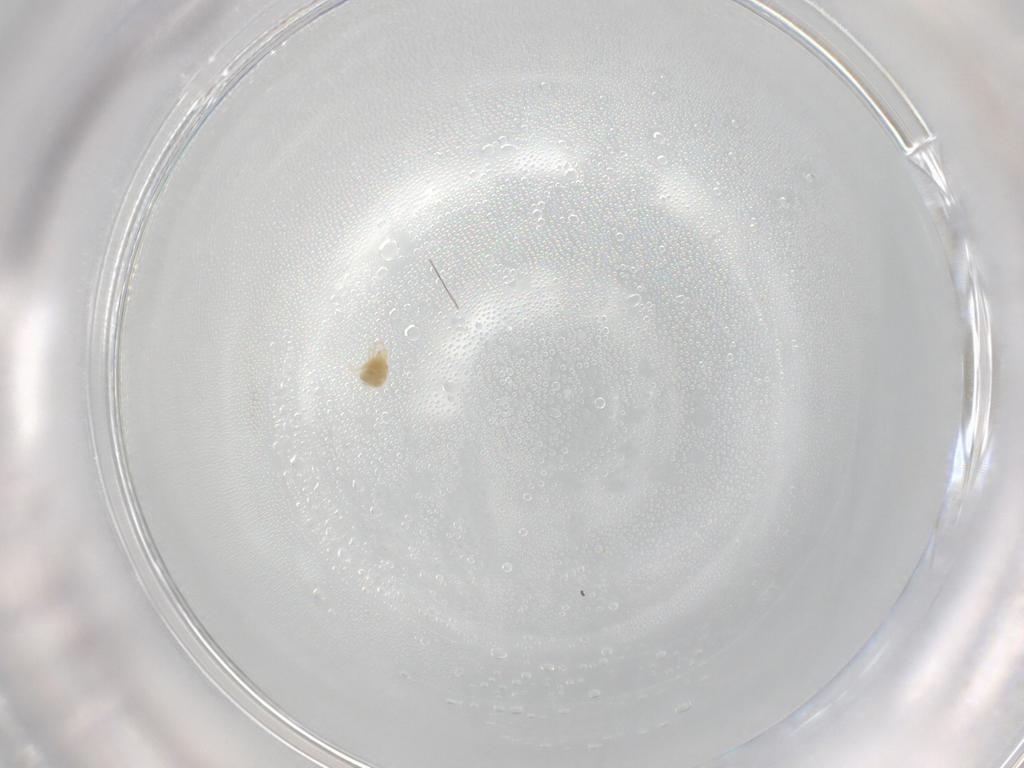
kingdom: Animalia
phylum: Arthropoda
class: Arachnida
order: Trombidiformes
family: Tetranychidae
